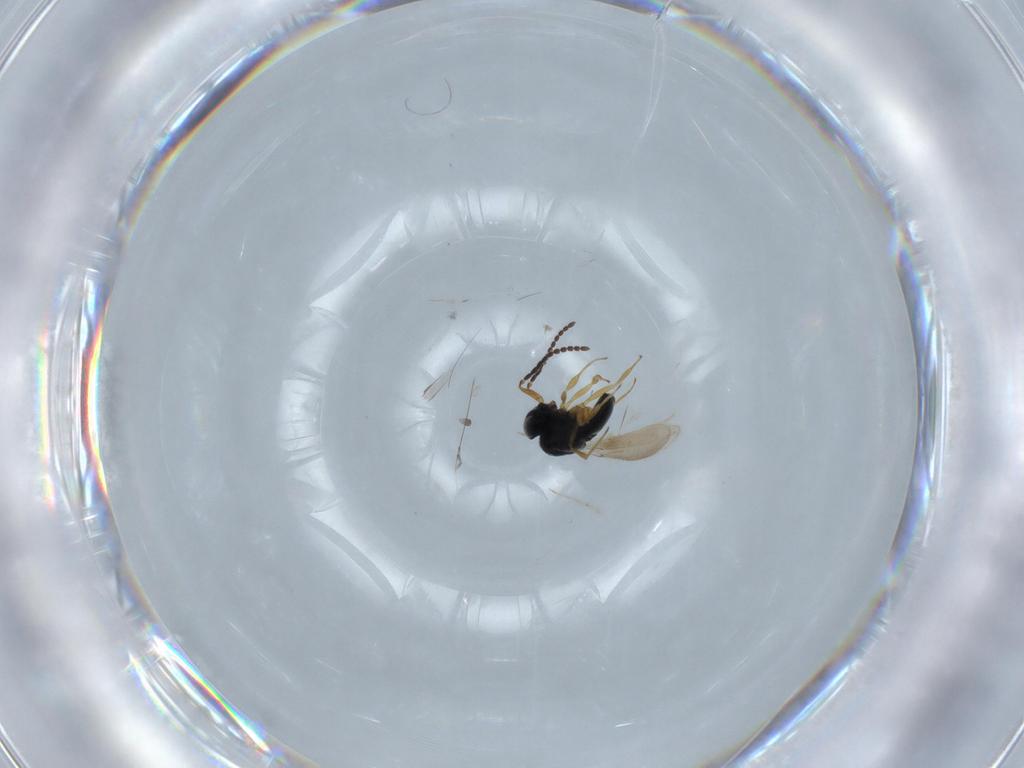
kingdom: Animalia
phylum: Arthropoda
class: Insecta
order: Hymenoptera
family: Scelionidae
